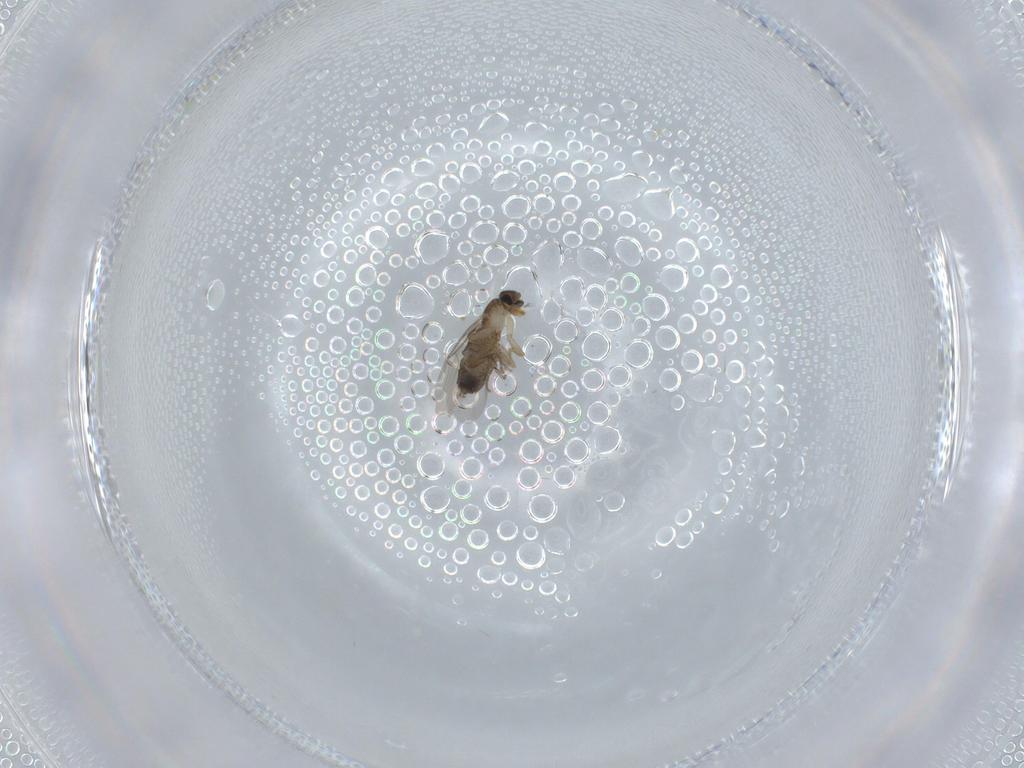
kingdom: Animalia
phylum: Arthropoda
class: Insecta
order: Diptera
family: Phoridae
